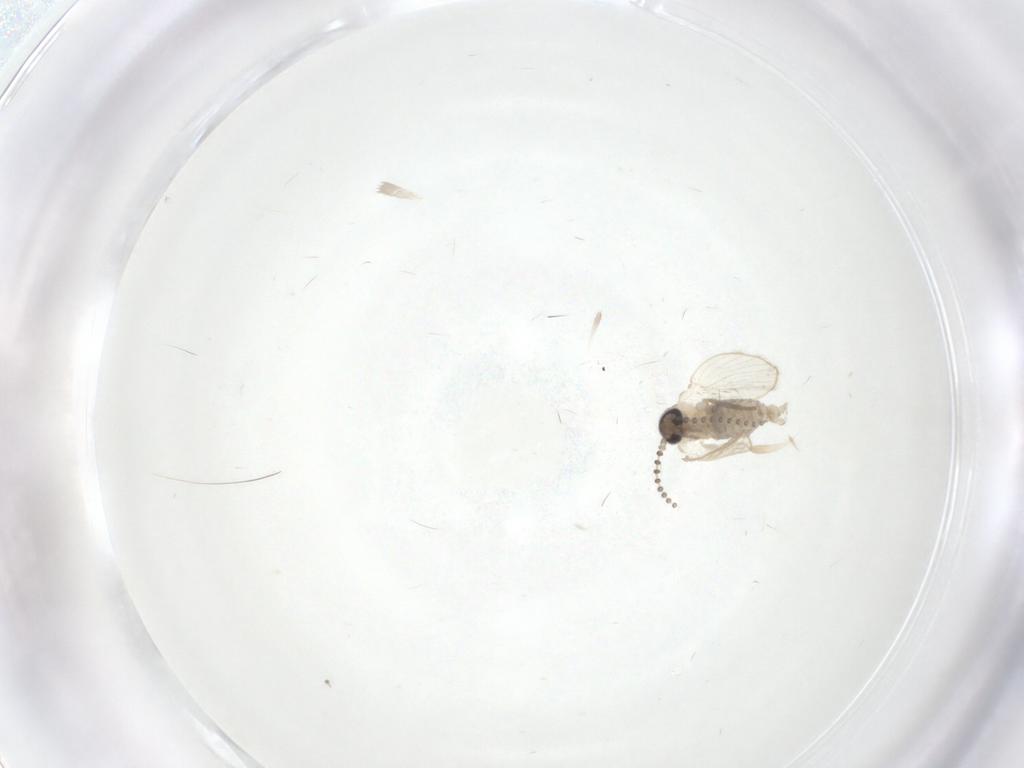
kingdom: Animalia
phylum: Arthropoda
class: Insecta
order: Diptera
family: Psychodidae
